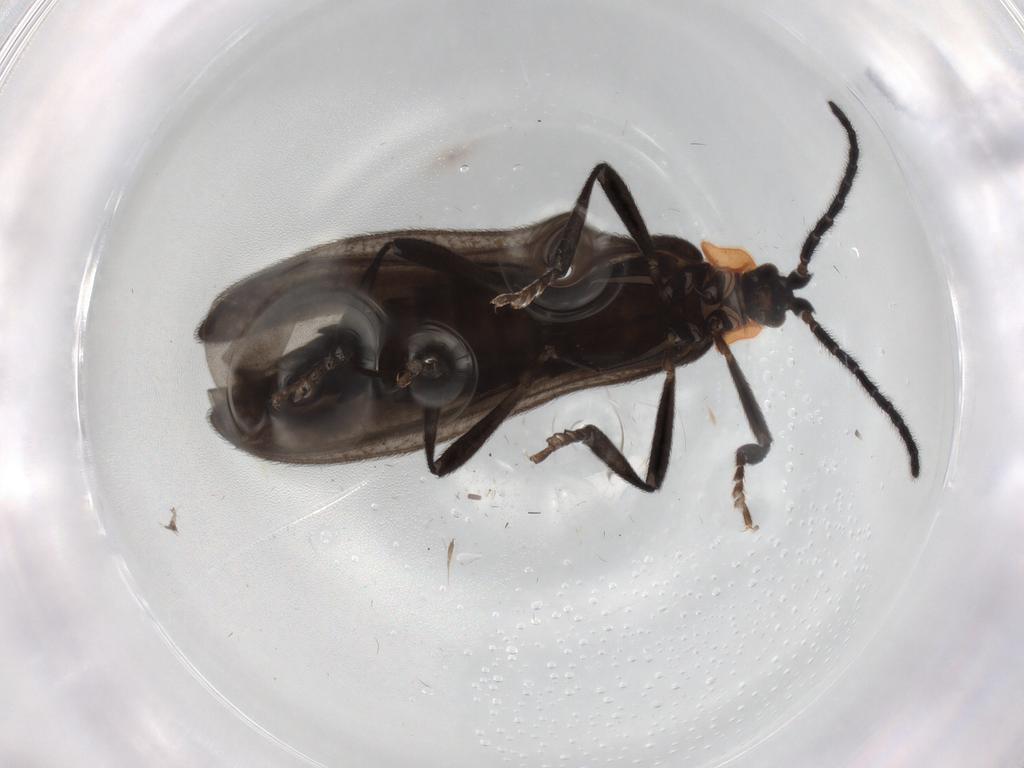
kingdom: Animalia
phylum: Arthropoda
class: Insecta
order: Coleoptera
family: Lycidae
